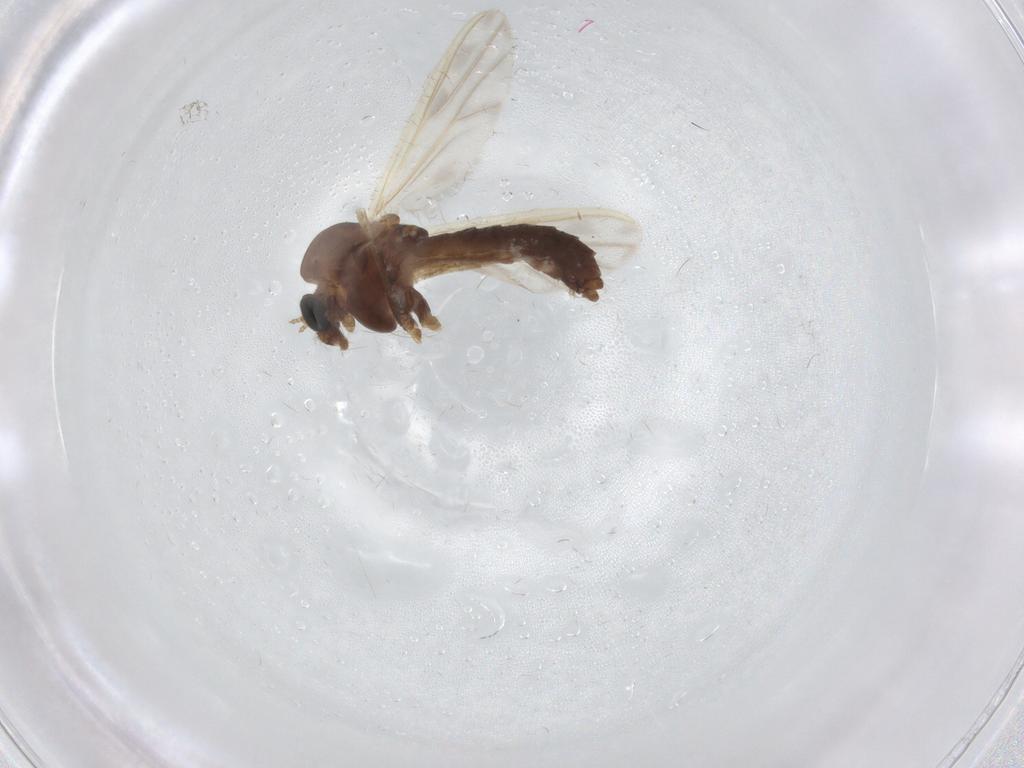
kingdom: Animalia
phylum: Arthropoda
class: Insecta
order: Diptera
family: Chironomidae
